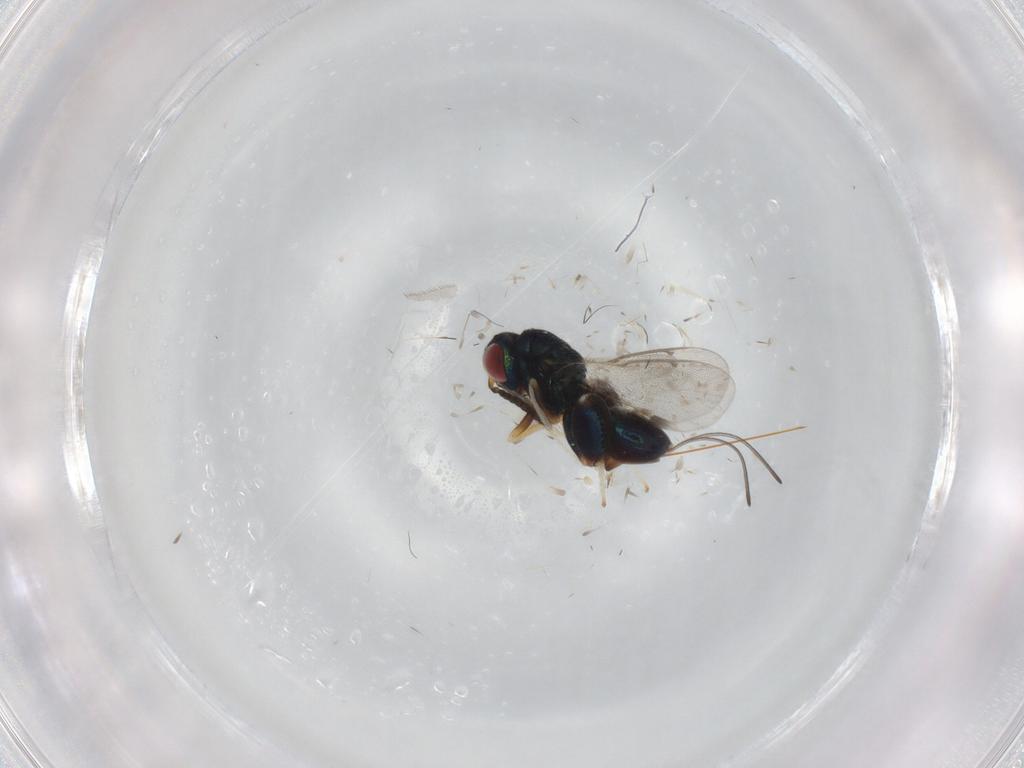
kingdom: Animalia
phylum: Arthropoda
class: Insecta
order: Hymenoptera
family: Torymidae
